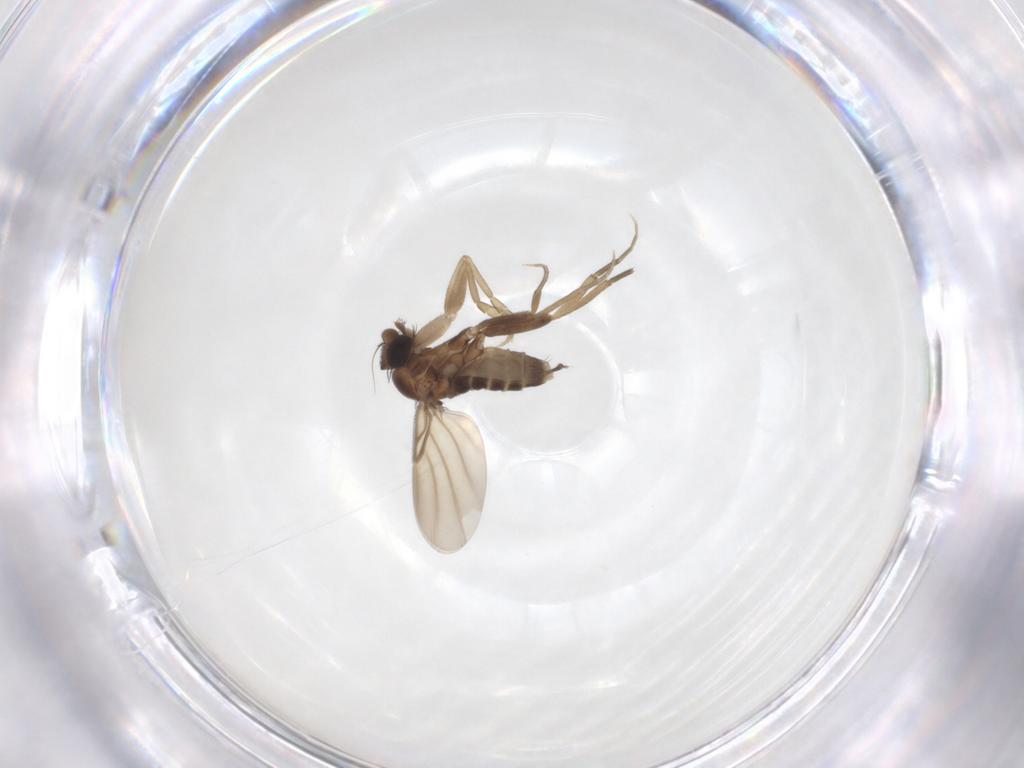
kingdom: Animalia
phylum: Arthropoda
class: Insecta
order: Diptera
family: Phoridae
